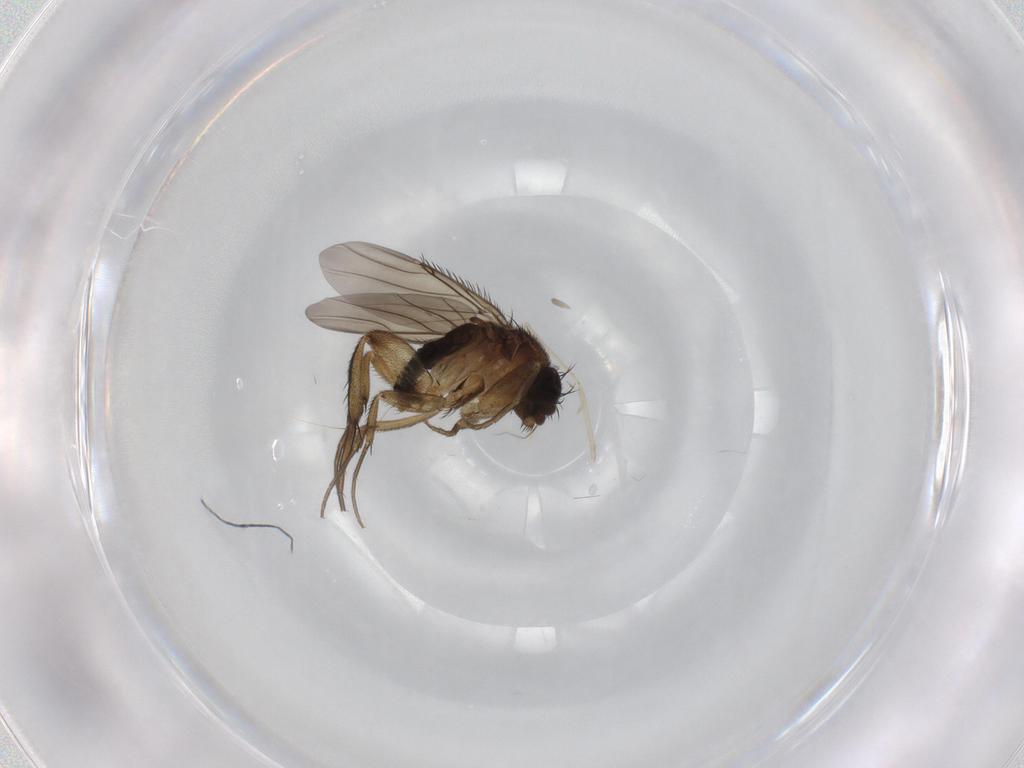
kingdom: Animalia
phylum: Arthropoda
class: Insecta
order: Diptera
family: Phoridae
